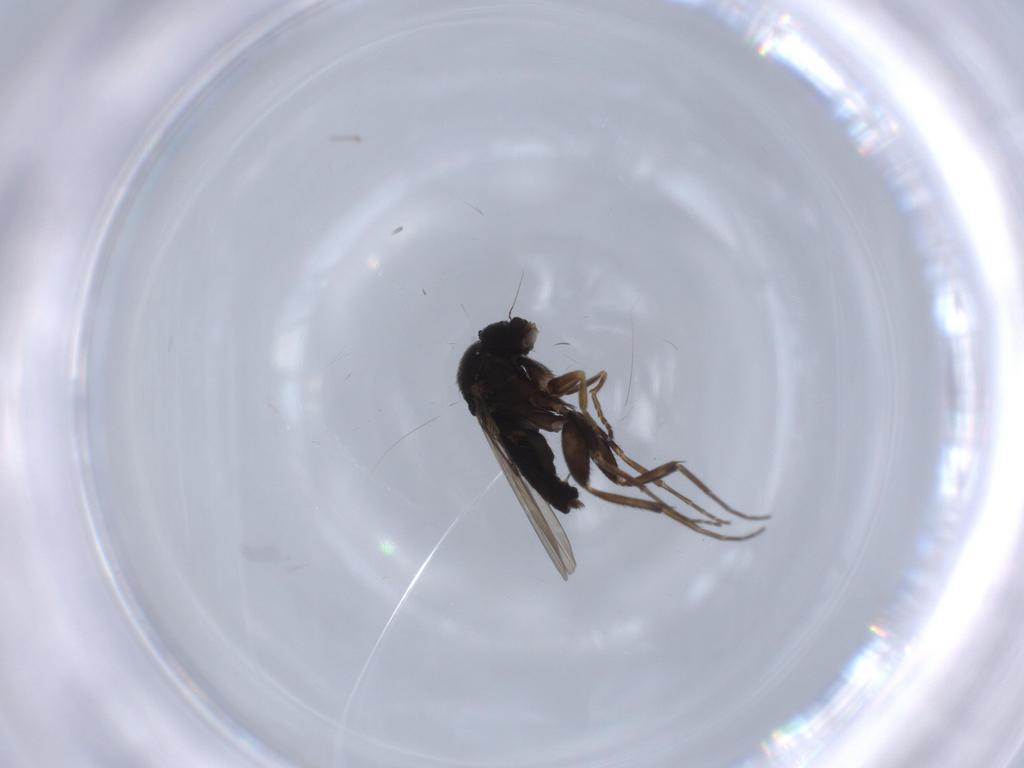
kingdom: Animalia
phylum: Arthropoda
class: Insecta
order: Diptera
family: Phoridae
